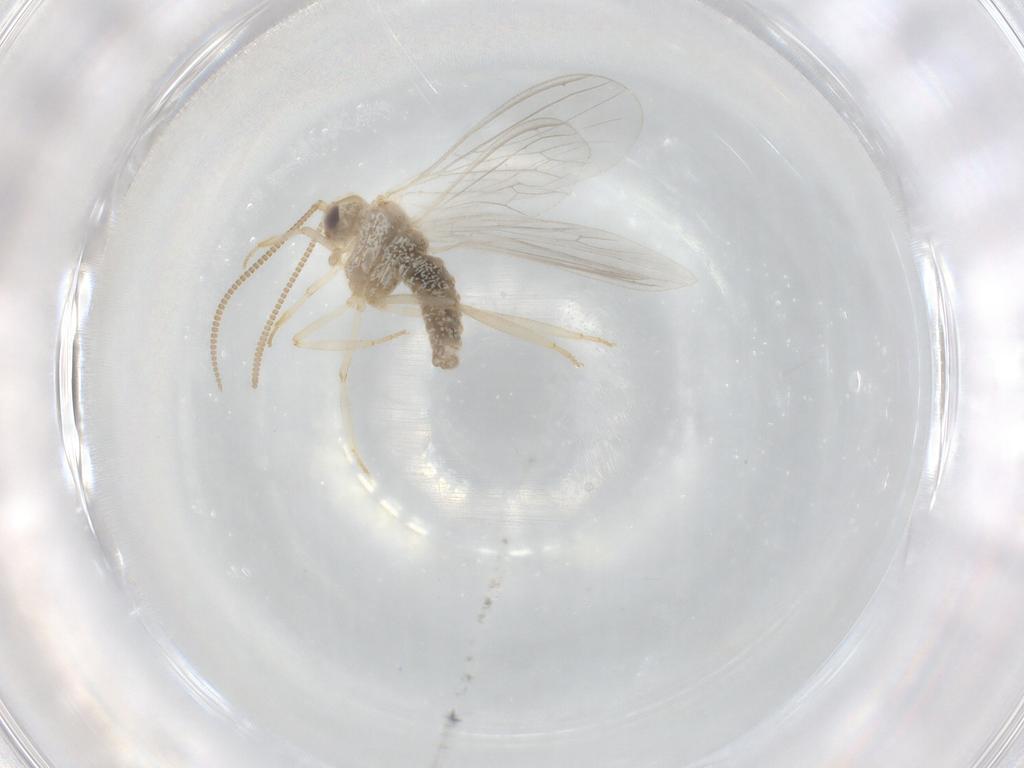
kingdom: Animalia
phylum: Arthropoda
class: Insecta
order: Neuroptera
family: Coniopterygidae
